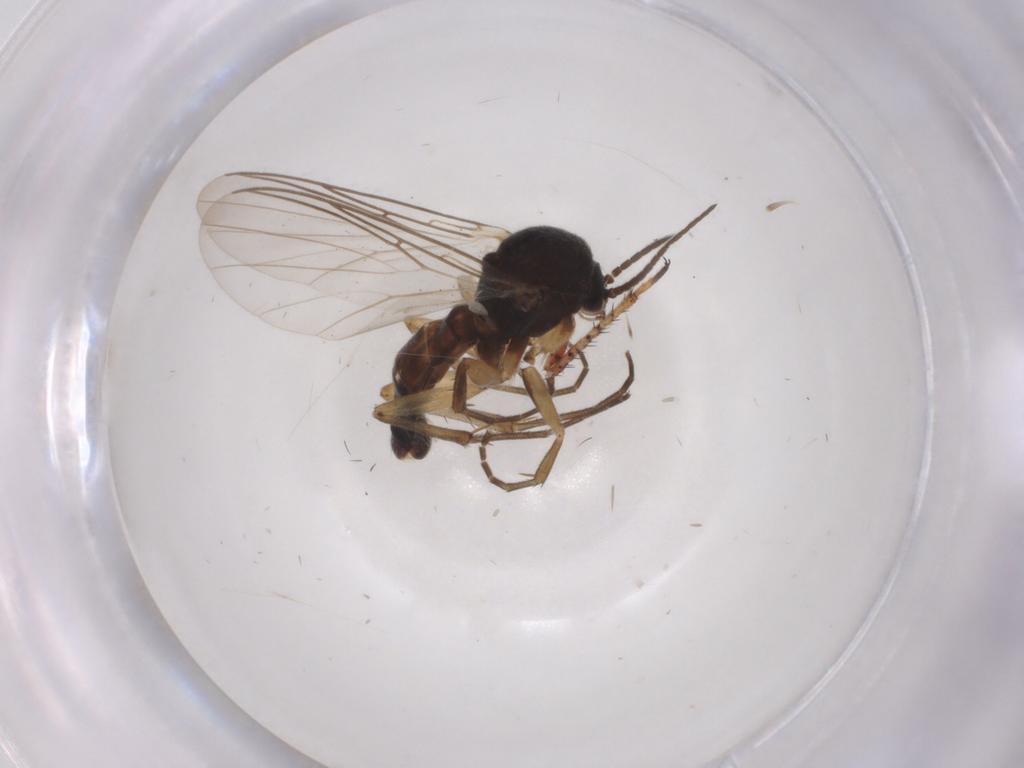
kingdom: Animalia
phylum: Arthropoda
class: Insecta
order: Diptera
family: Mycetophilidae
